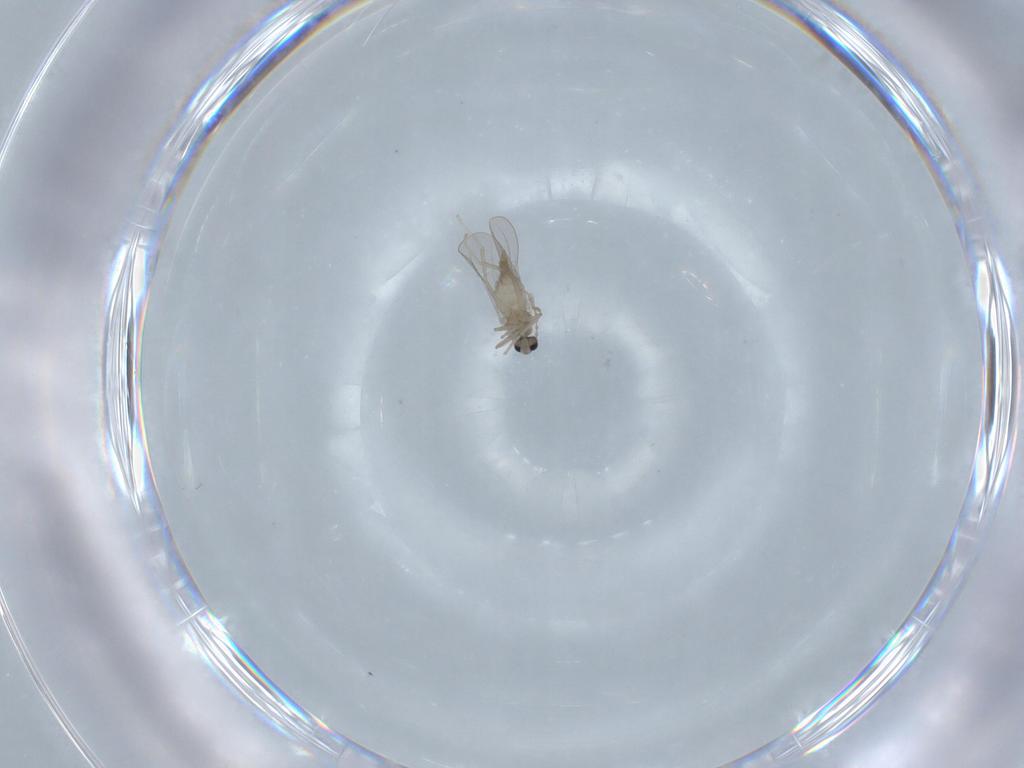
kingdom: Animalia
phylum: Arthropoda
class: Insecta
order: Diptera
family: Cecidomyiidae
